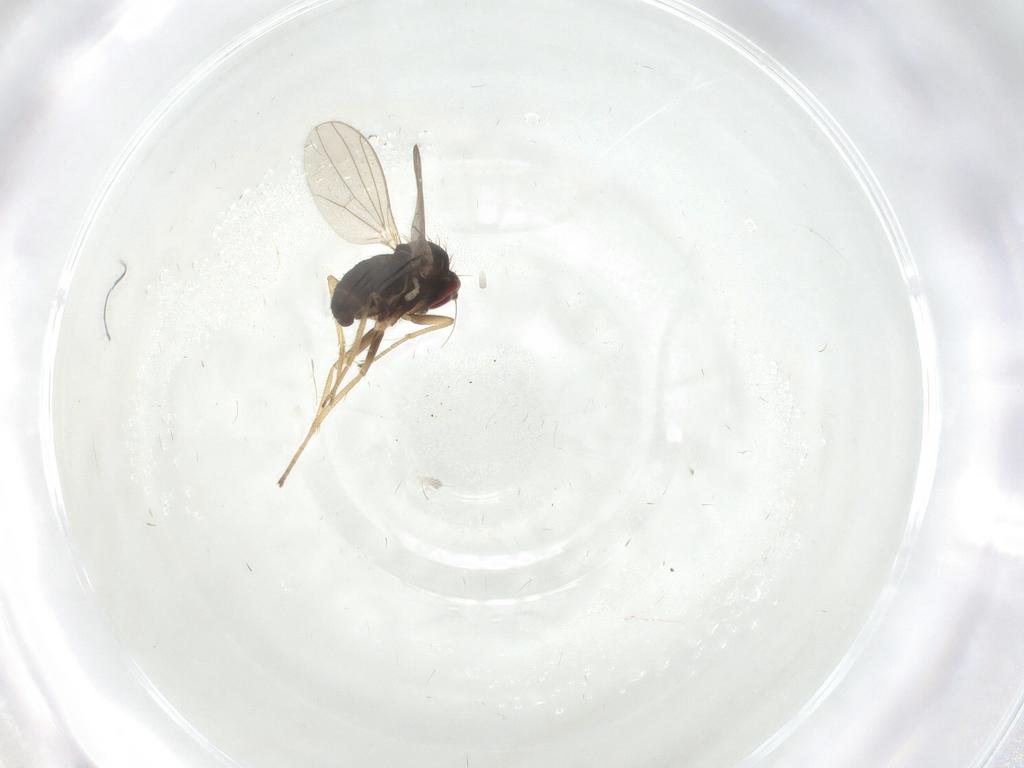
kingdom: Animalia
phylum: Arthropoda
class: Insecta
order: Diptera
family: Dolichopodidae
